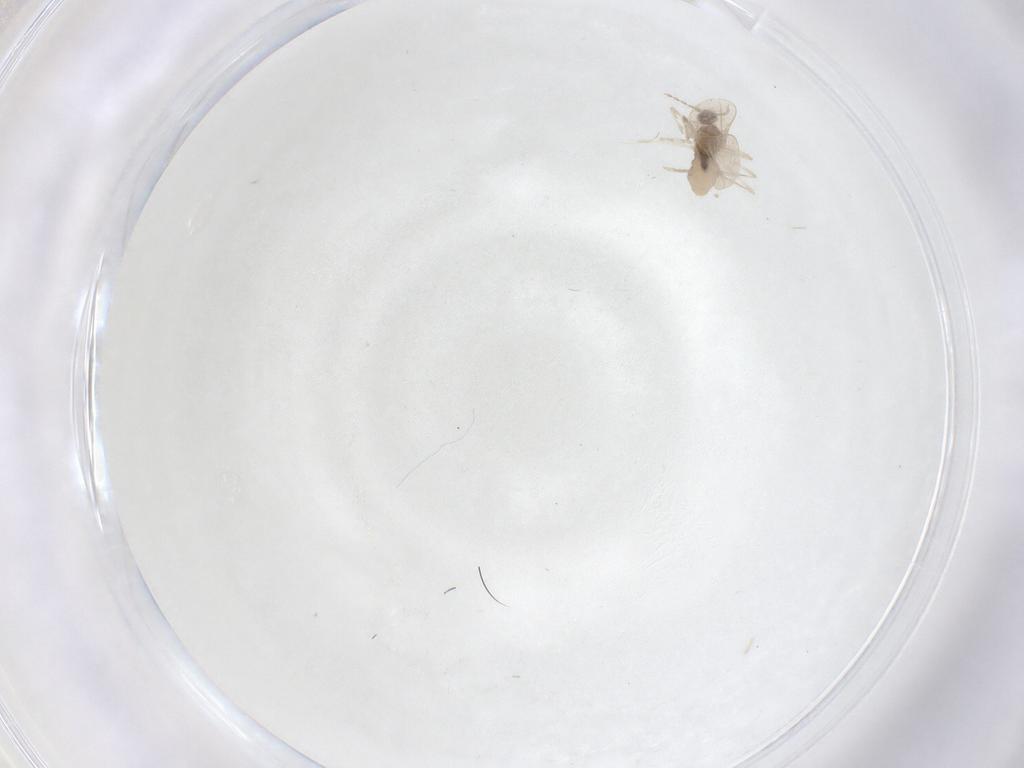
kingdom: Animalia
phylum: Arthropoda
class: Insecta
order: Diptera
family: Cecidomyiidae
